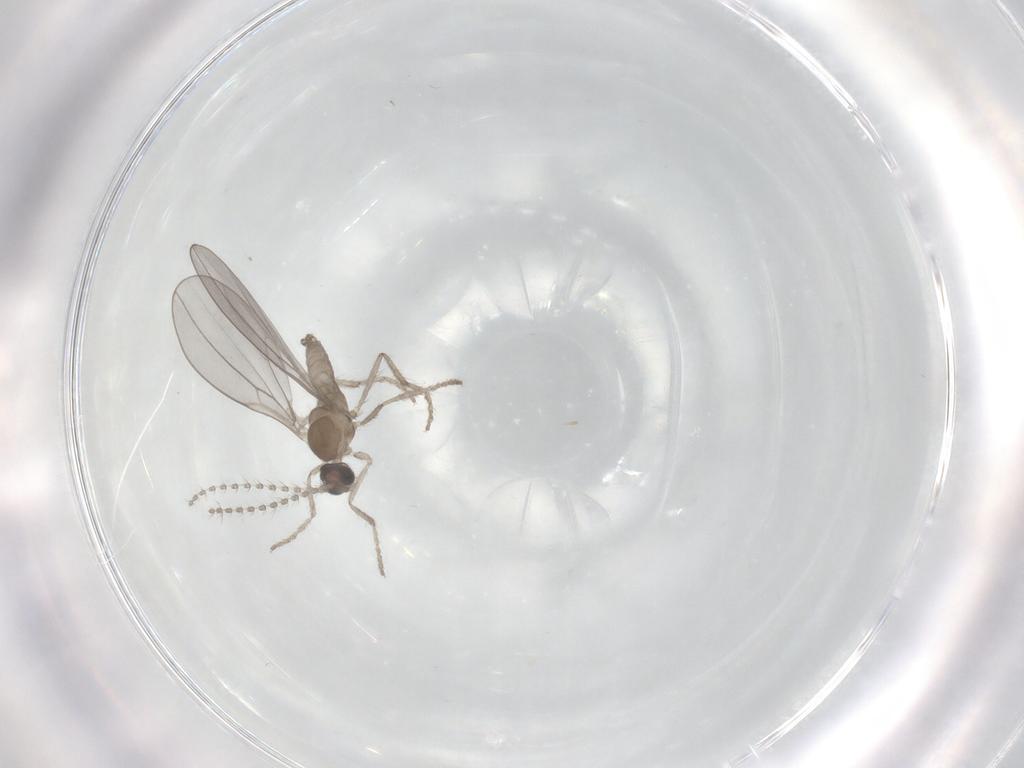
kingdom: Animalia
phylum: Arthropoda
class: Insecta
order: Diptera
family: Cecidomyiidae
